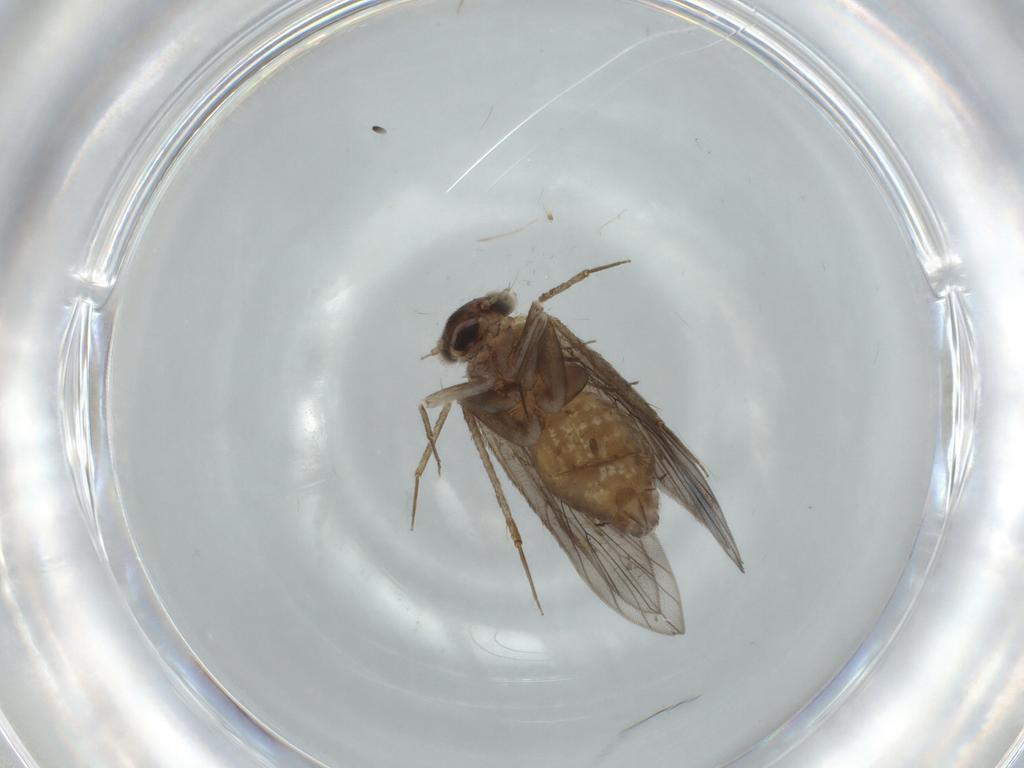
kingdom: Animalia
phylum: Arthropoda
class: Insecta
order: Psocodea
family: Lepidopsocidae
